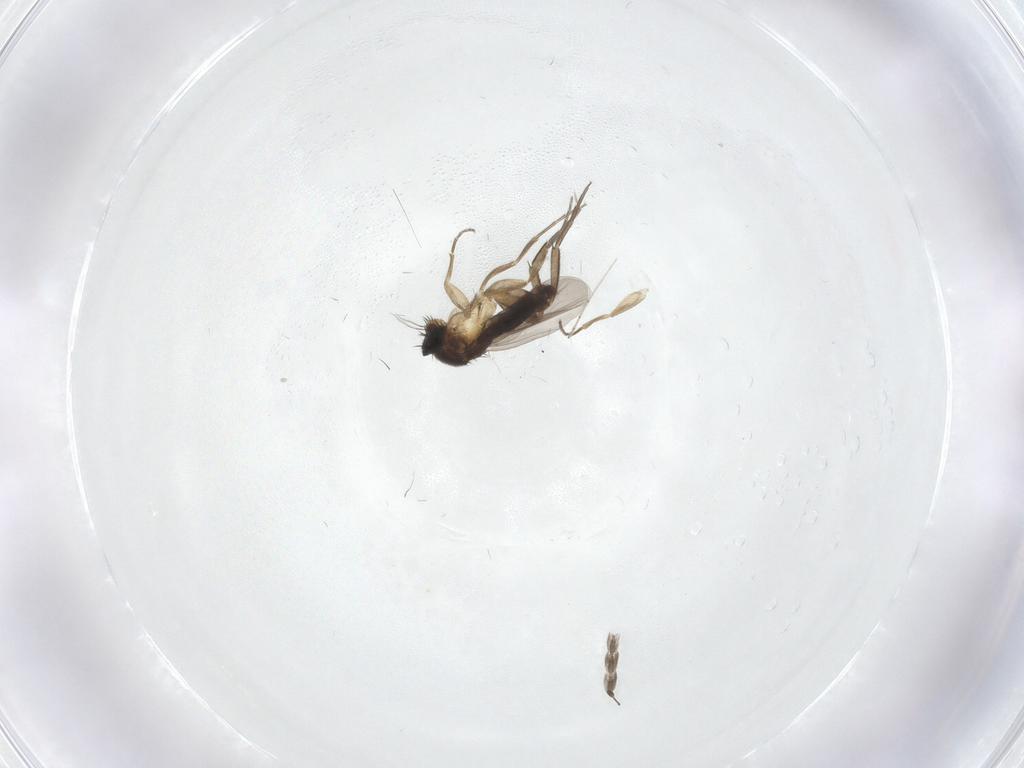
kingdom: Animalia
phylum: Arthropoda
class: Insecta
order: Diptera
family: Phoridae
